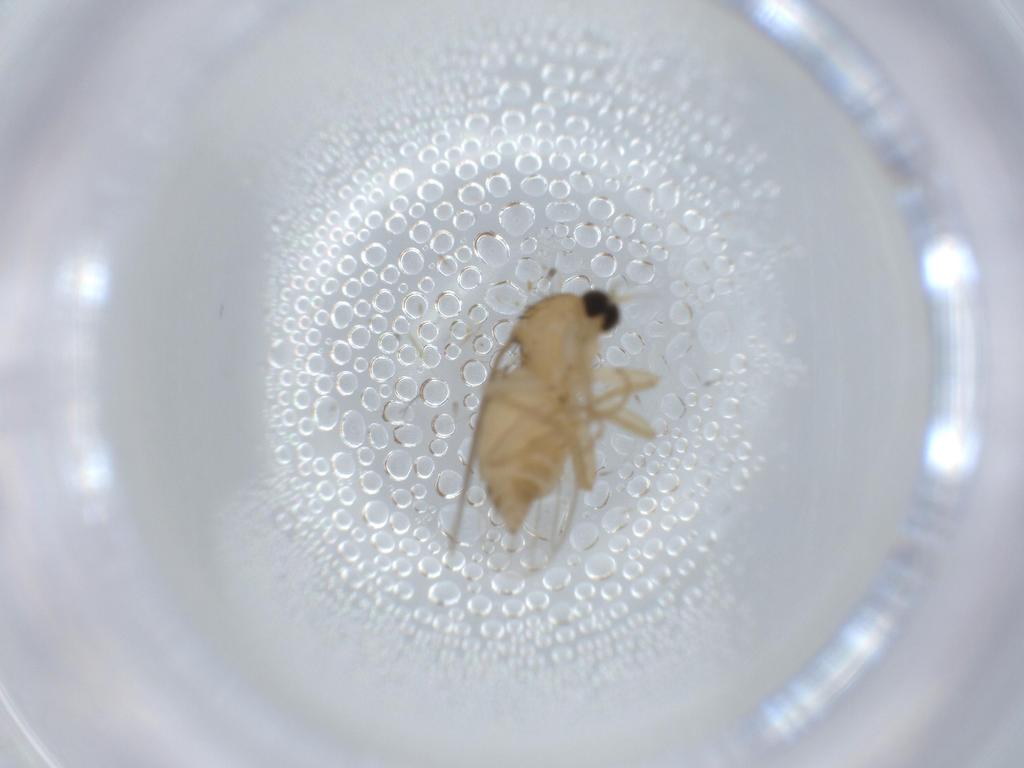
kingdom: Animalia
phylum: Arthropoda
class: Insecta
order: Diptera
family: Hybotidae
